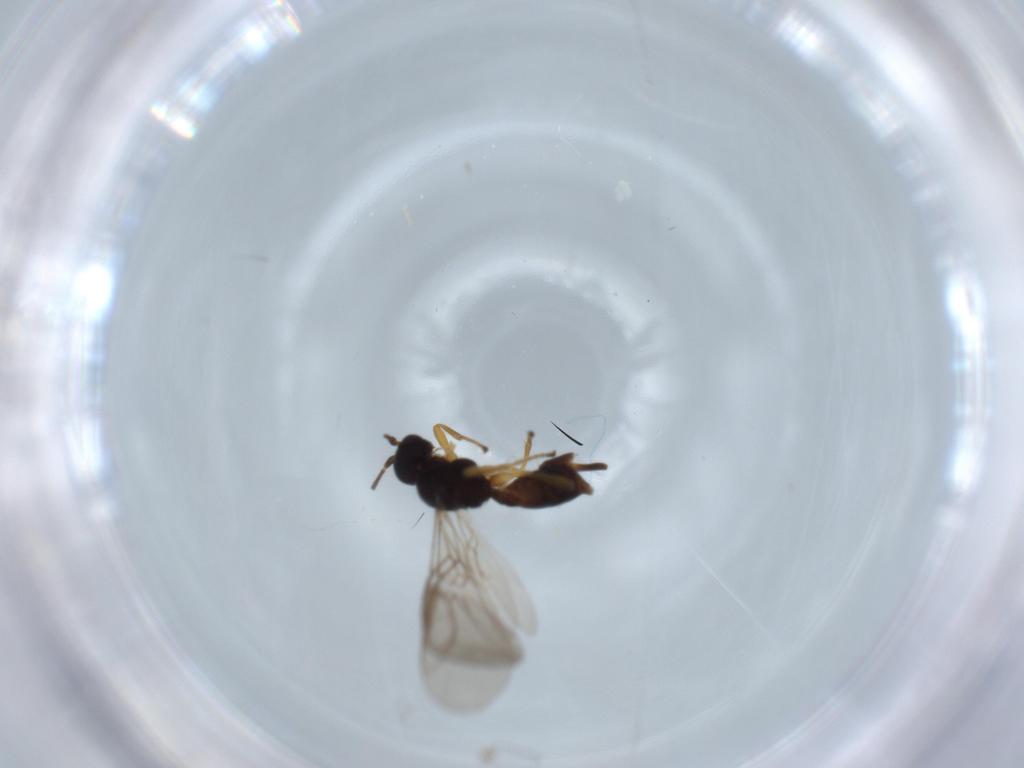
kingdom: Animalia
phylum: Arthropoda
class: Insecta
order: Hymenoptera
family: Braconidae
